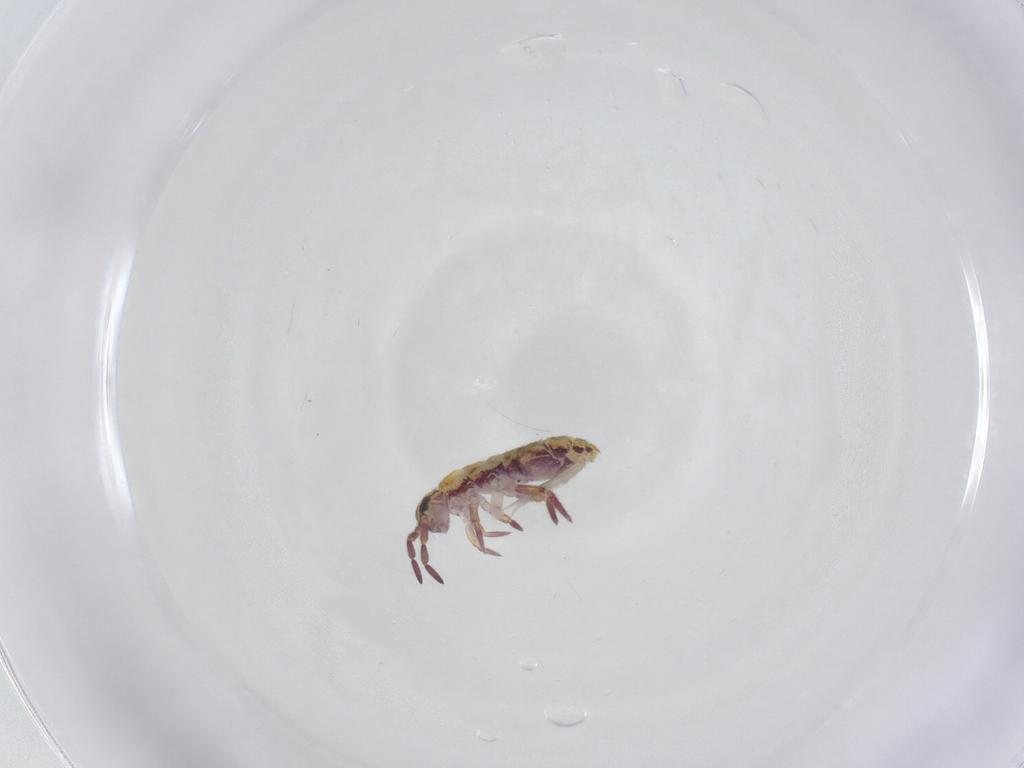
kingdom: Animalia
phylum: Arthropoda
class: Collembola
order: Entomobryomorpha
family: Isotomidae
